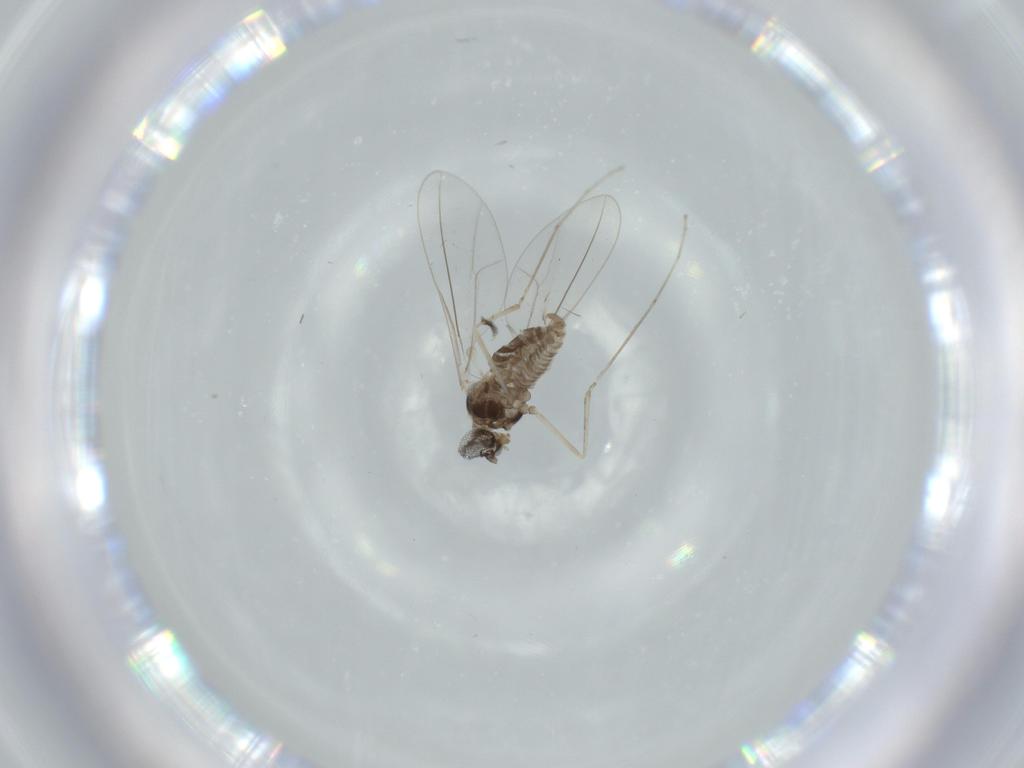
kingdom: Animalia
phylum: Arthropoda
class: Insecta
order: Diptera
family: Cecidomyiidae
